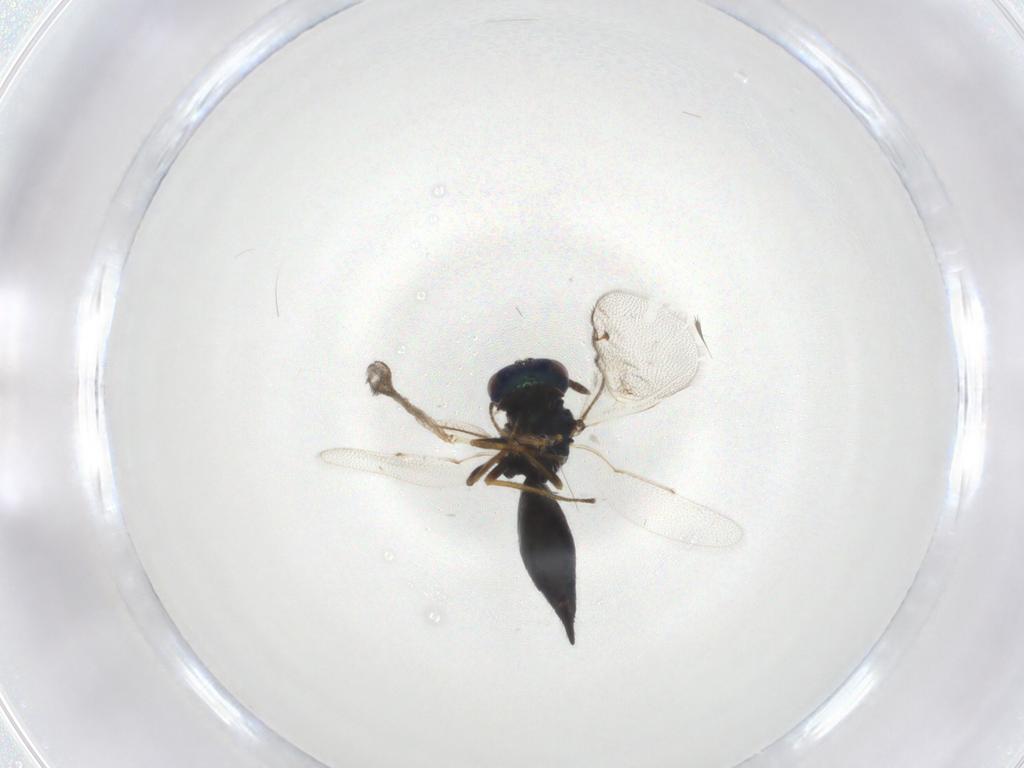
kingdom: Animalia
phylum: Arthropoda
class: Insecta
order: Hymenoptera
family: Pteromalidae
